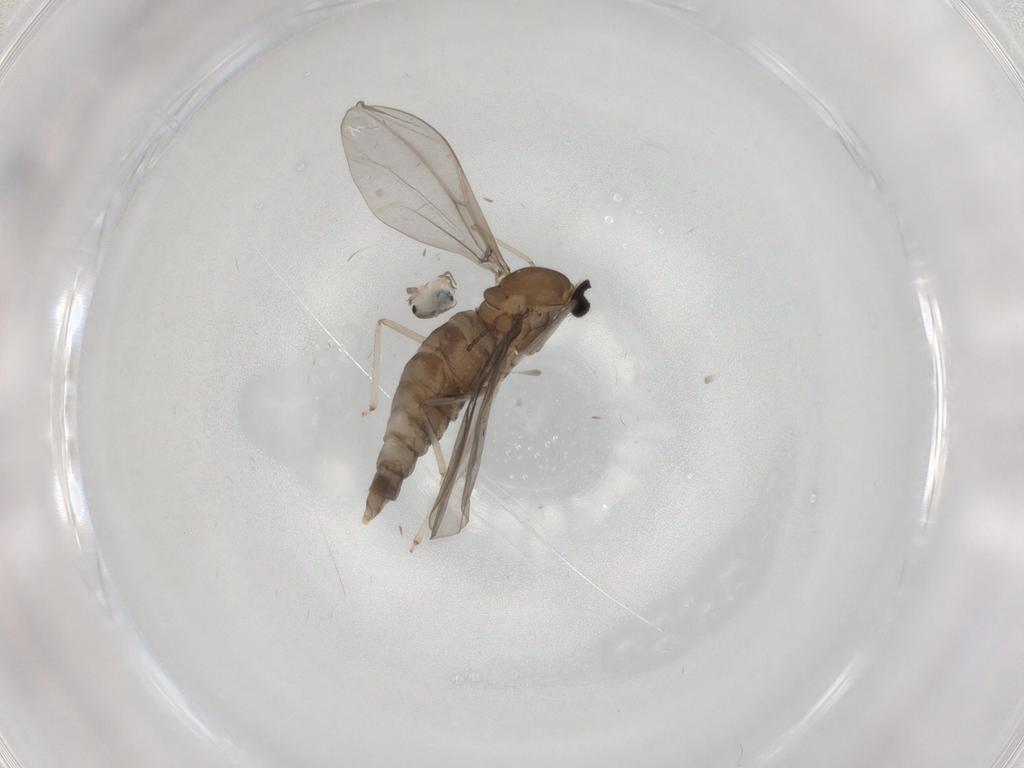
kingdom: Animalia
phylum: Arthropoda
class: Insecta
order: Diptera
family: Cecidomyiidae
